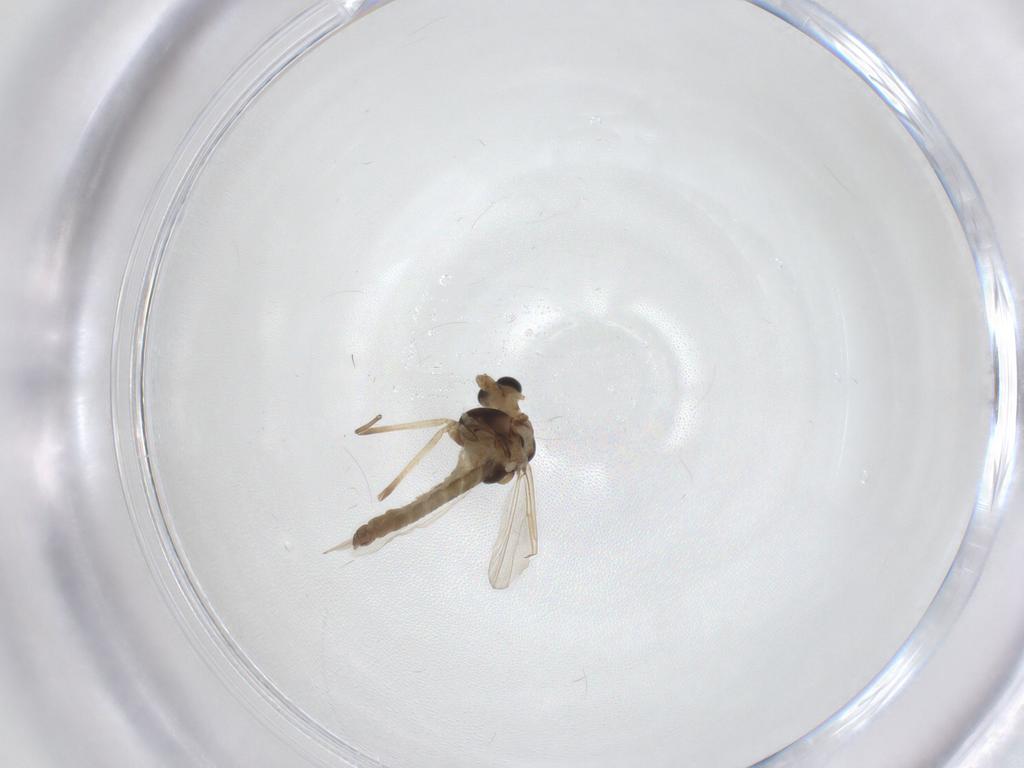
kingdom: Animalia
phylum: Arthropoda
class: Insecta
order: Diptera
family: Chironomidae
